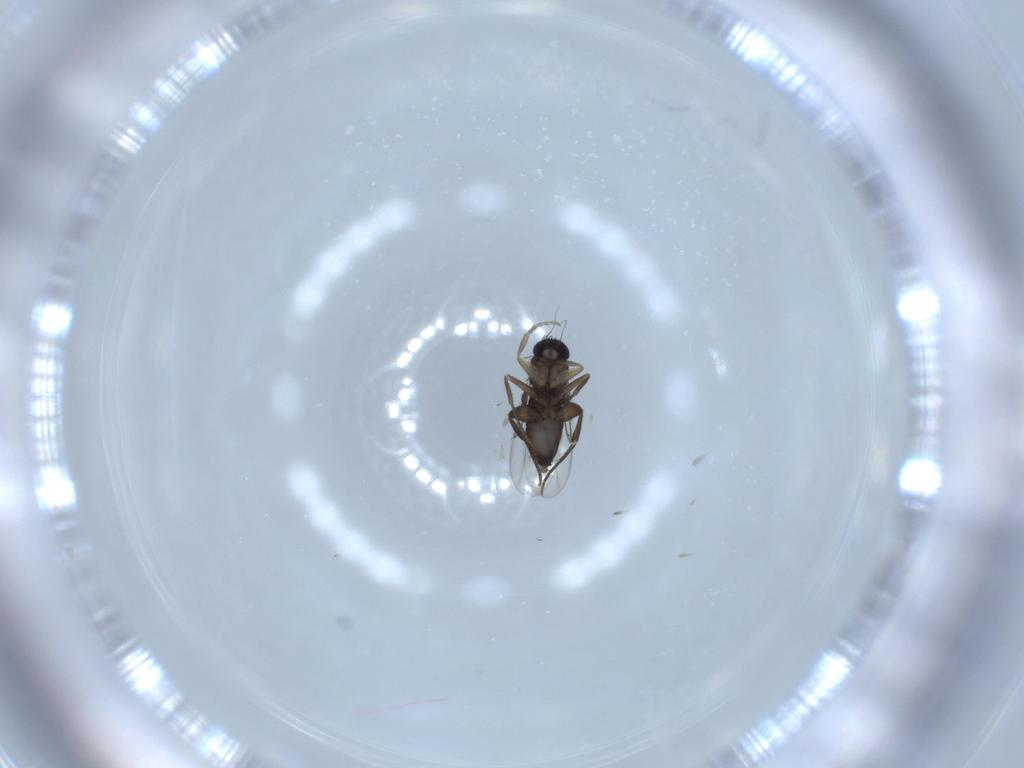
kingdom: Animalia
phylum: Arthropoda
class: Insecta
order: Diptera
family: Phoridae
